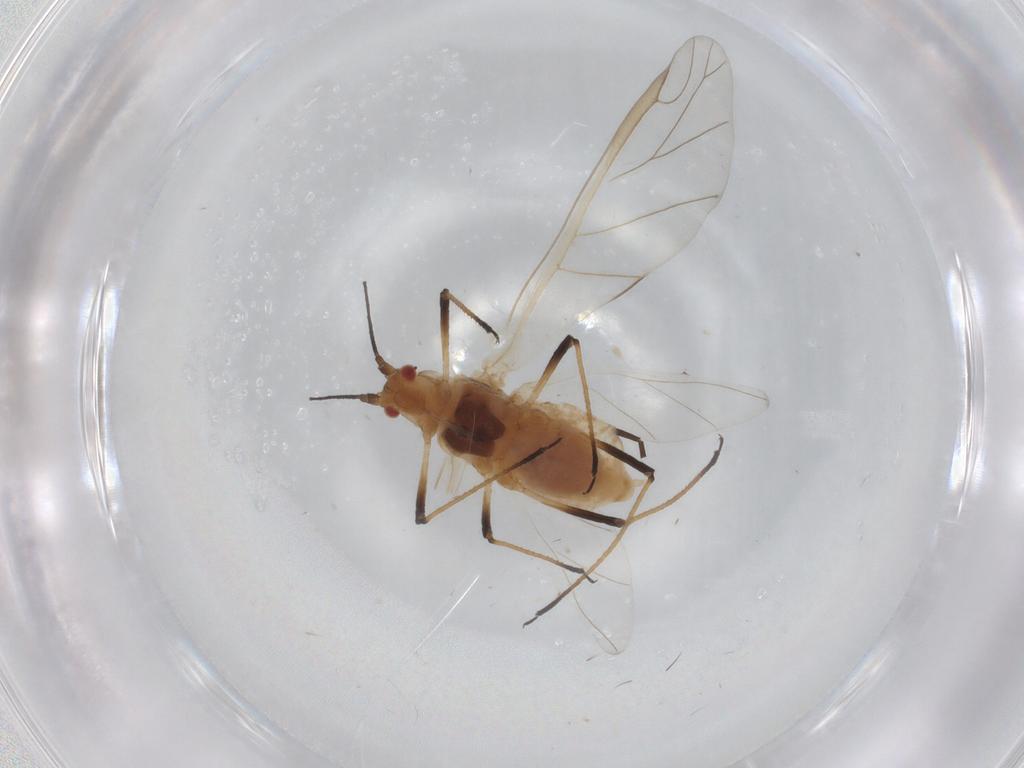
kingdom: Animalia
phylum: Arthropoda
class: Insecta
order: Hemiptera
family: Aphididae
